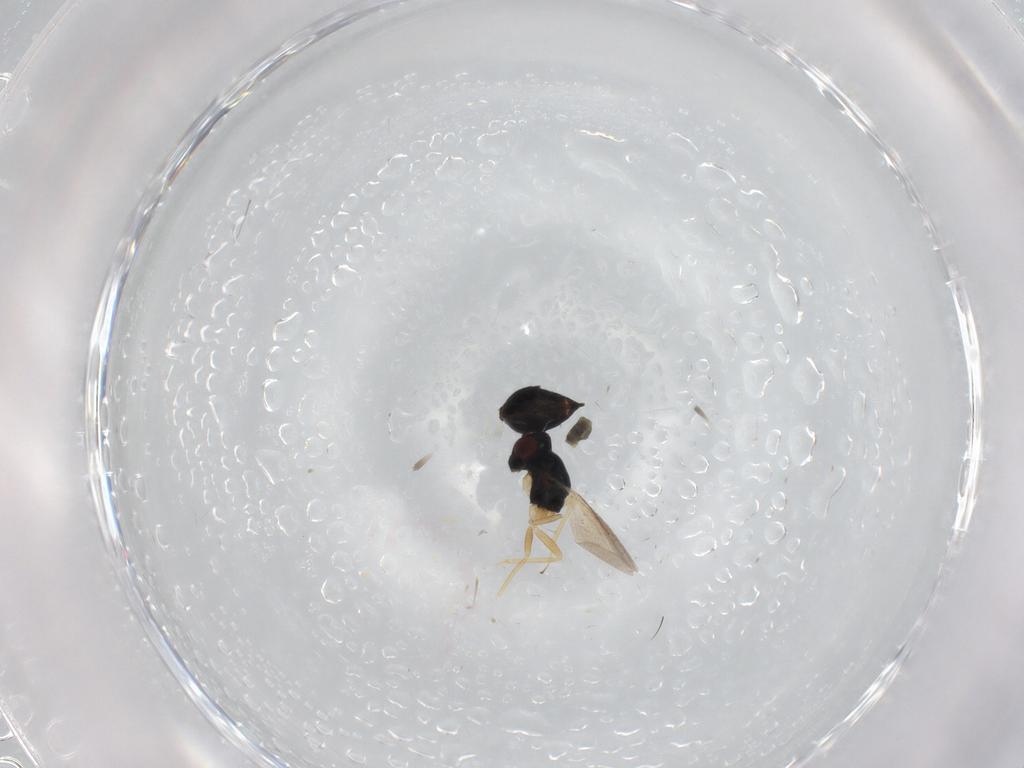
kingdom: Animalia
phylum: Arthropoda
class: Insecta
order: Hymenoptera
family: Eulophidae
